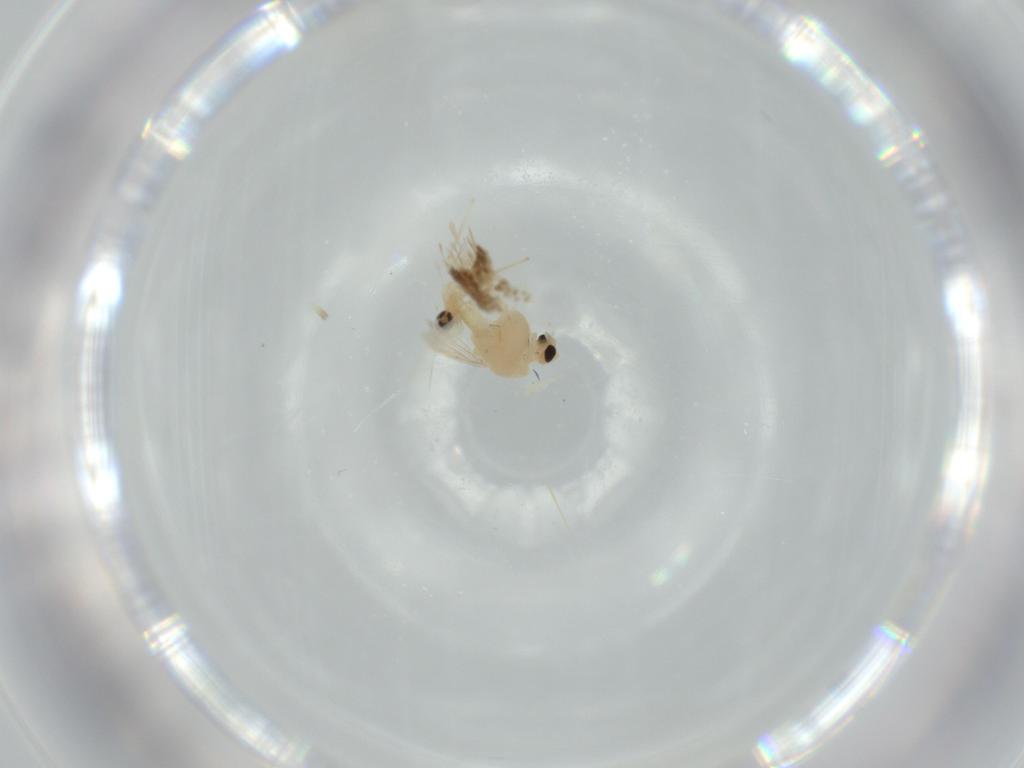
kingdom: Animalia
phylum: Arthropoda
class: Insecta
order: Diptera
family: Chironomidae
